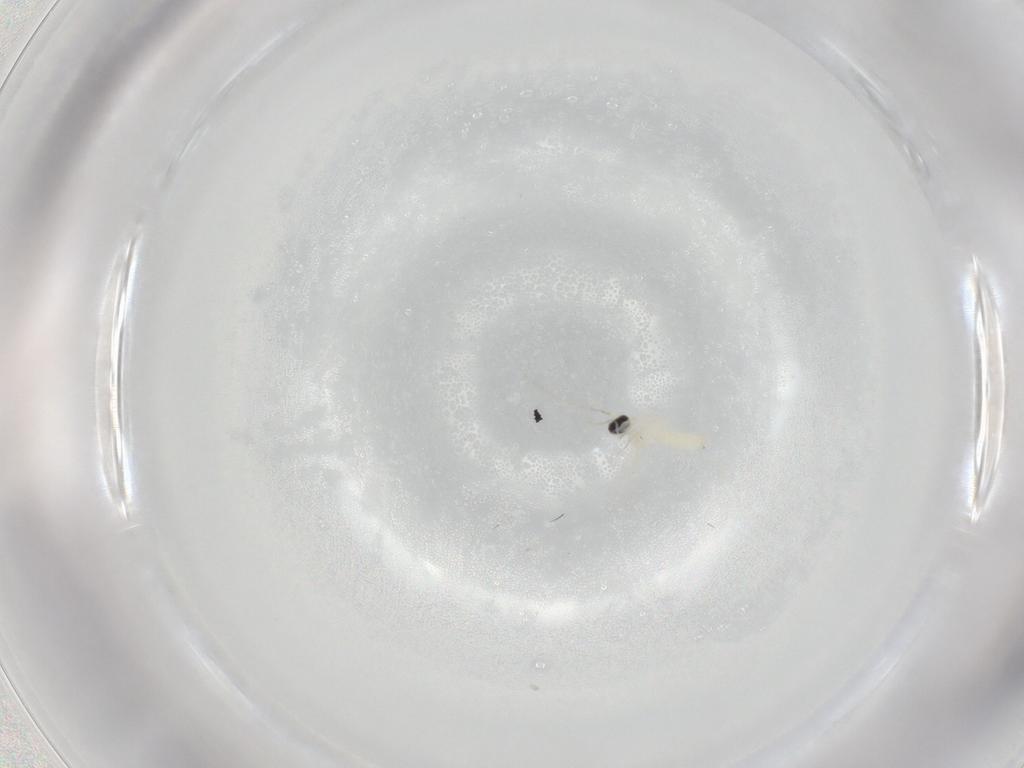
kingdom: Animalia
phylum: Arthropoda
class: Insecta
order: Diptera
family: Cecidomyiidae
